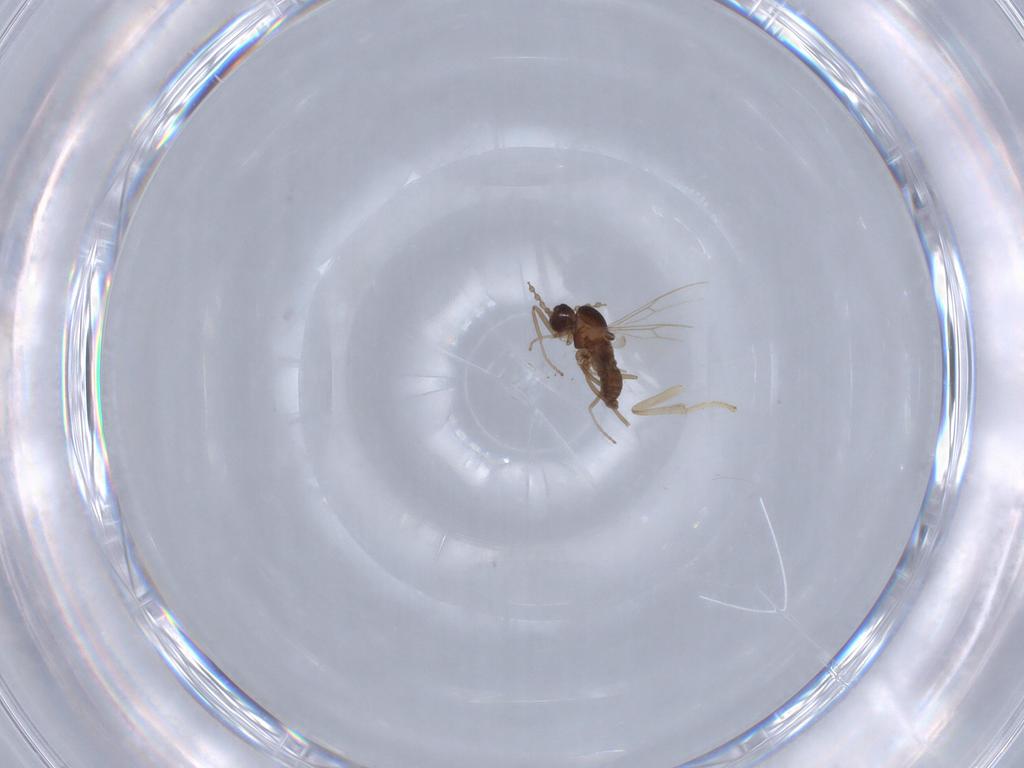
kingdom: Animalia
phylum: Arthropoda
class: Insecta
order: Diptera
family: Cecidomyiidae
